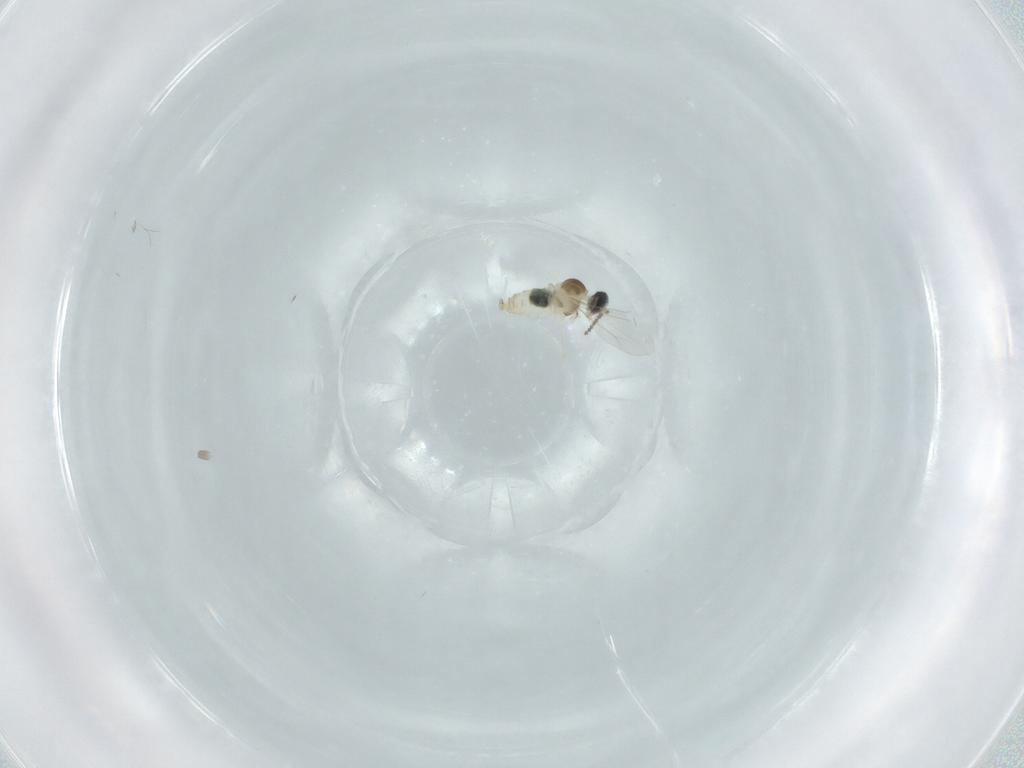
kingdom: Animalia
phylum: Arthropoda
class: Insecta
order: Diptera
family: Cecidomyiidae
